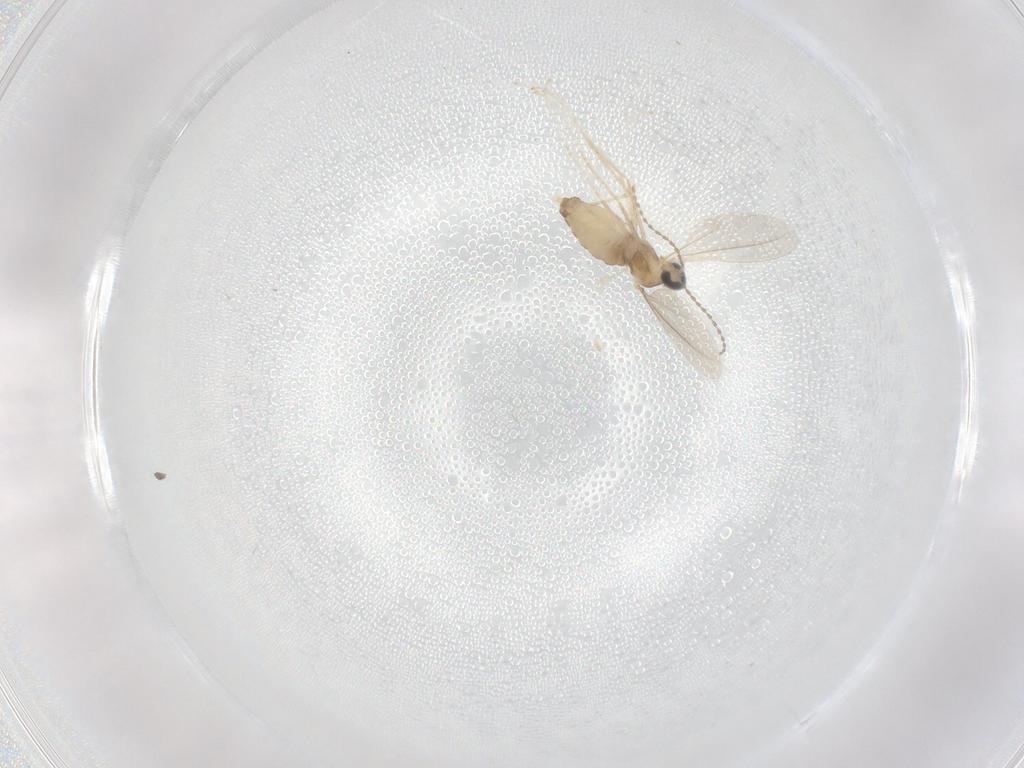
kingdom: Animalia
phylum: Arthropoda
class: Insecta
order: Diptera
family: Cecidomyiidae
